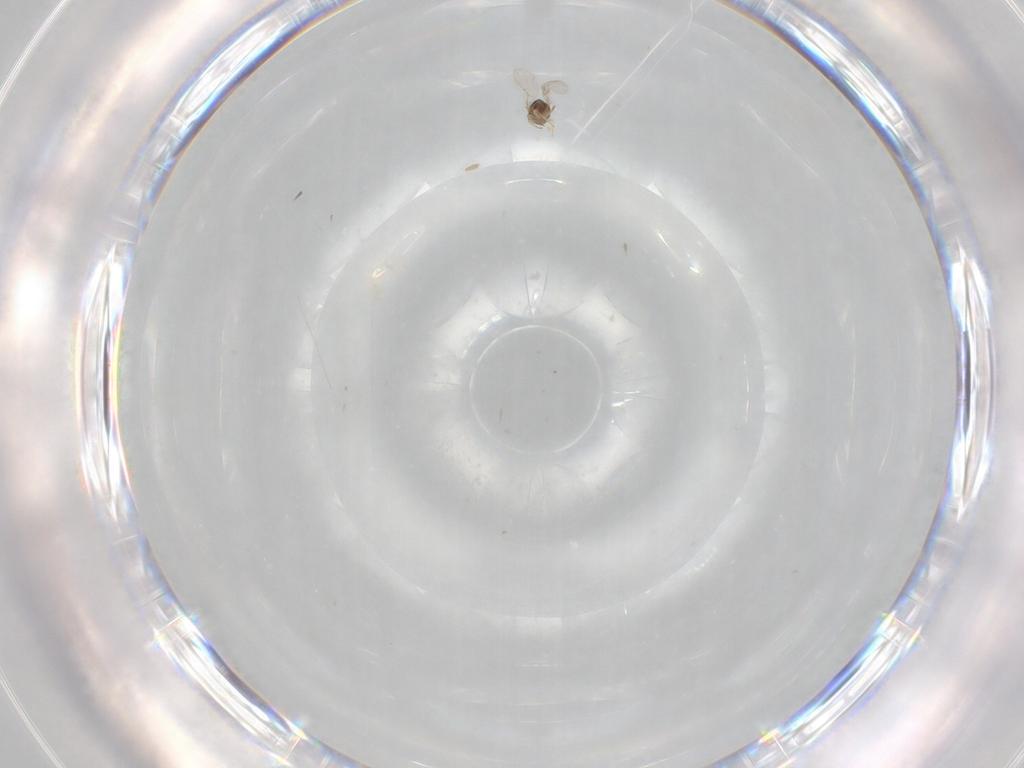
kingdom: Animalia
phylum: Arthropoda
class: Insecta
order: Hymenoptera
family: Encyrtidae
